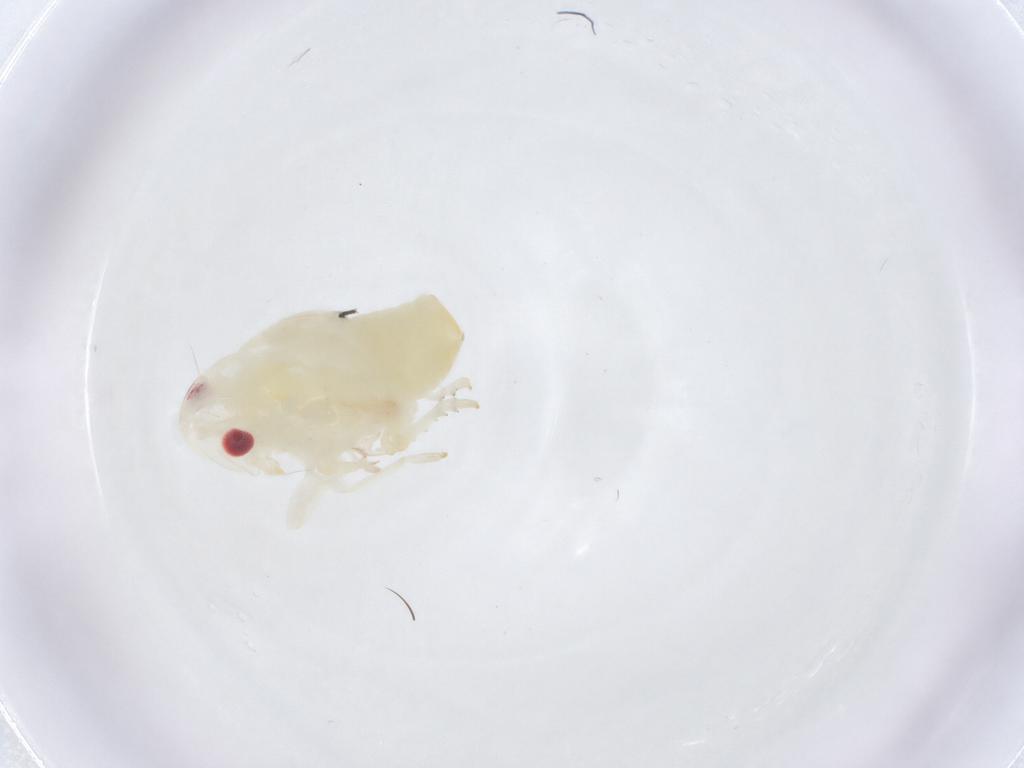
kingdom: Animalia
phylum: Arthropoda
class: Insecta
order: Hemiptera
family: Flatidae
